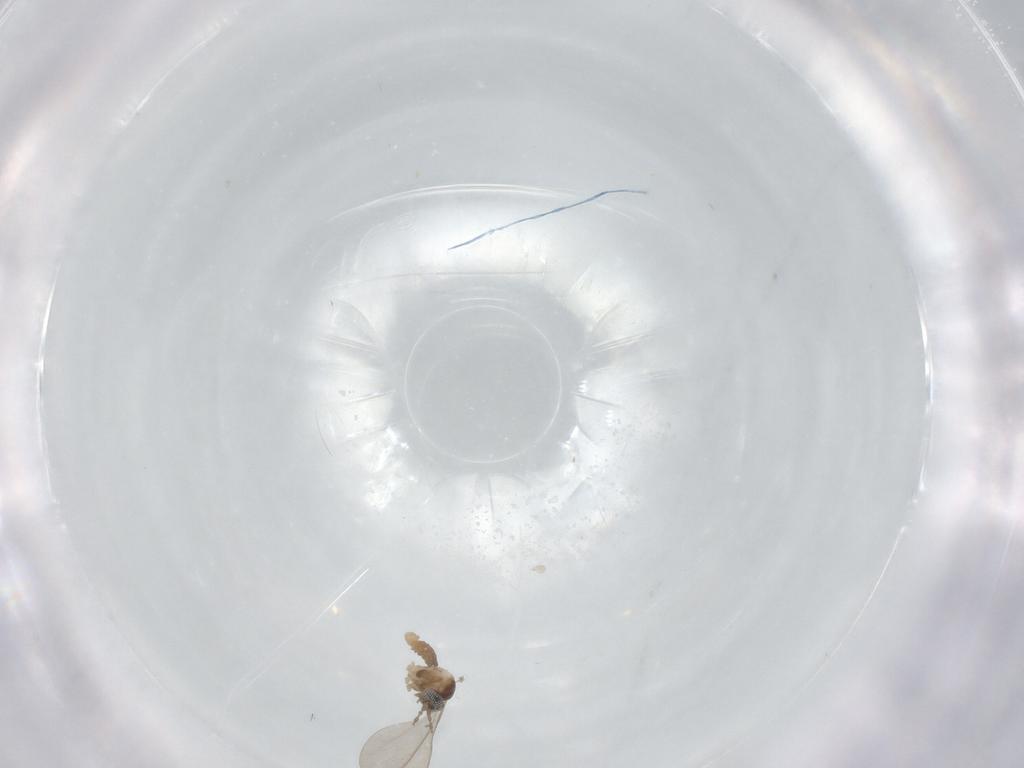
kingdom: Animalia
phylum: Arthropoda
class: Insecta
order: Diptera
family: Cecidomyiidae
